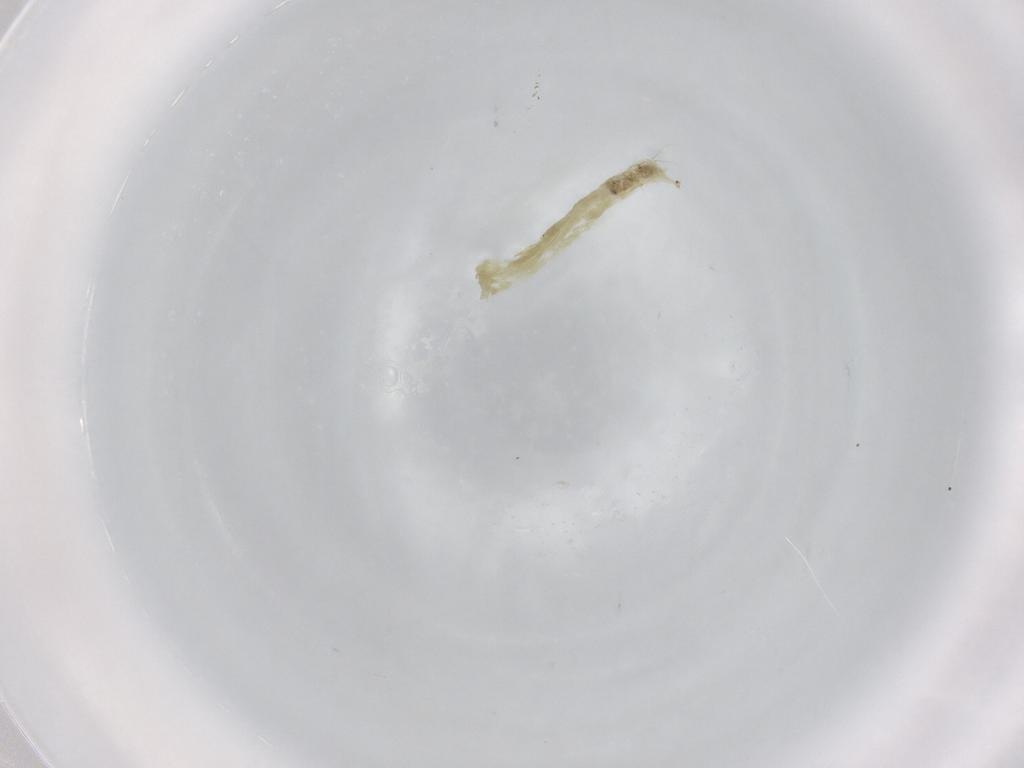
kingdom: Animalia
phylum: Arthropoda
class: Insecta
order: Diptera
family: Chironomidae
